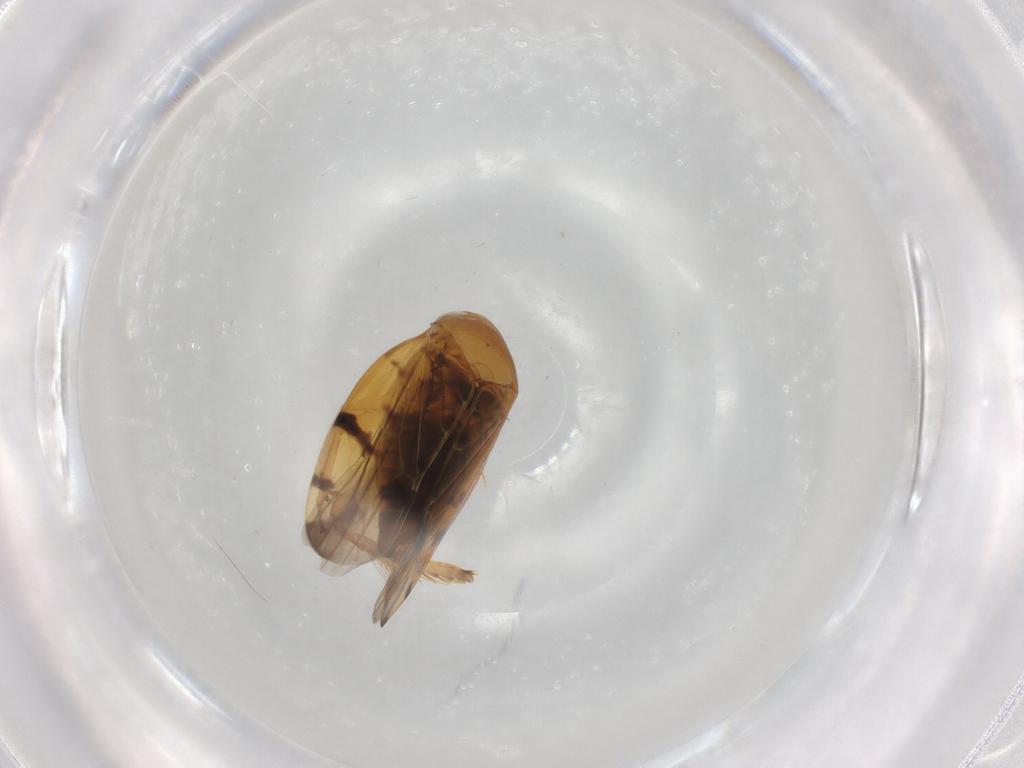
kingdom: Animalia
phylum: Arthropoda
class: Insecta
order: Hemiptera
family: Cicadellidae
